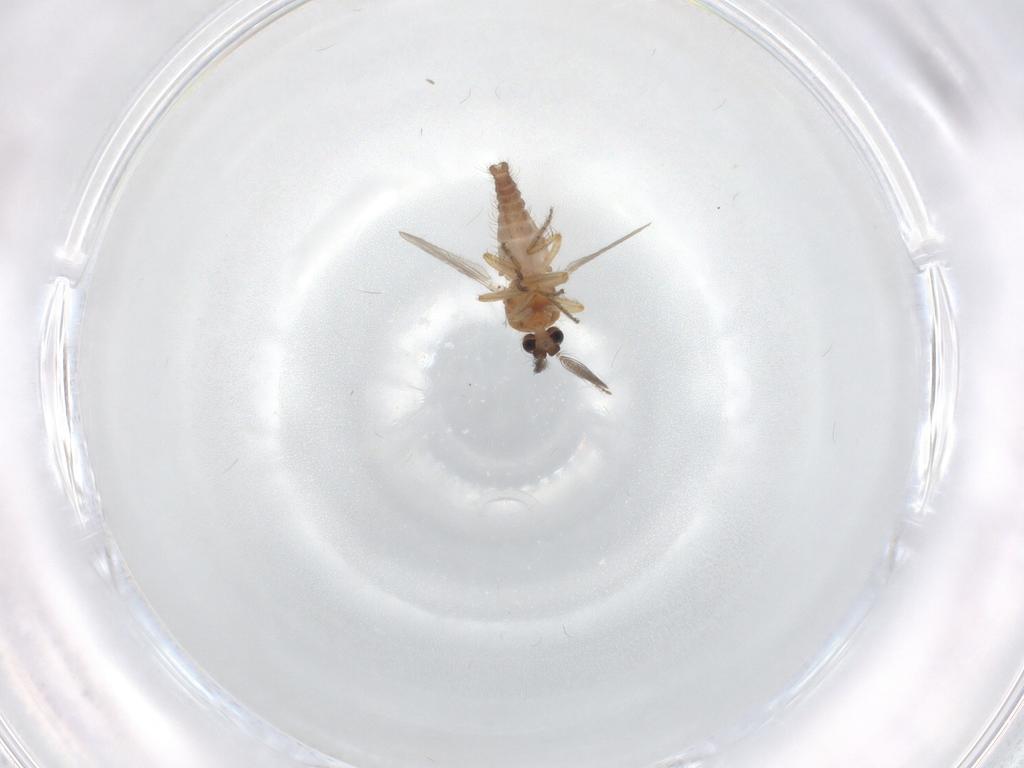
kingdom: Animalia
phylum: Arthropoda
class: Insecta
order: Diptera
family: Ceratopogonidae
